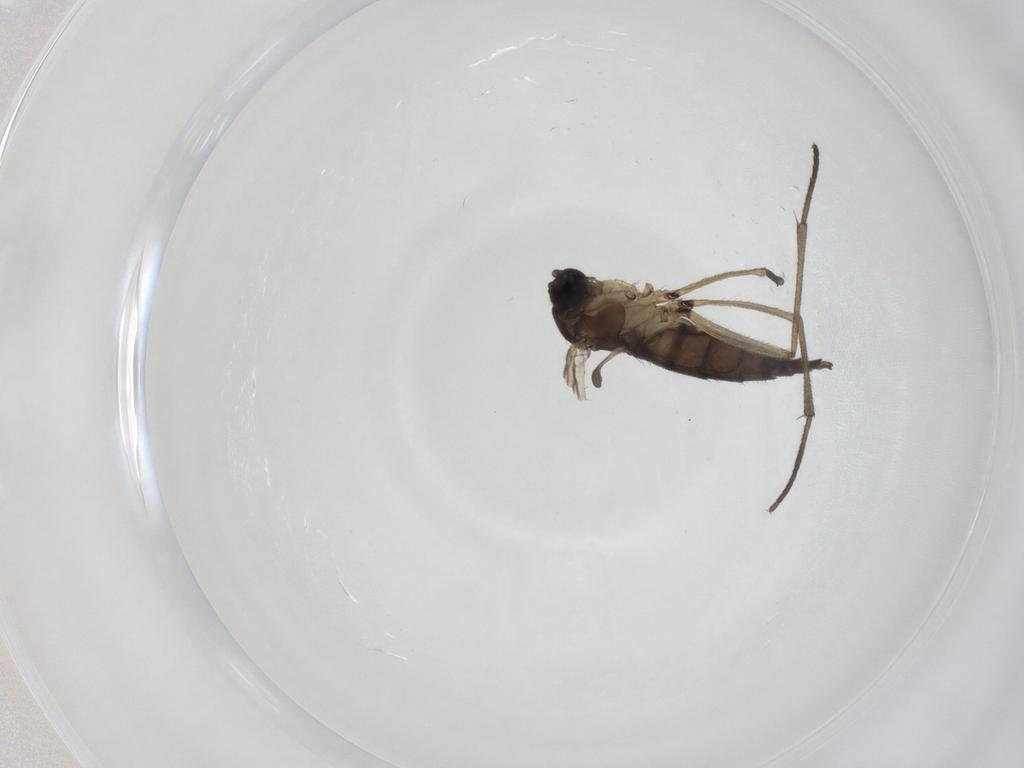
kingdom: Animalia
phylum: Arthropoda
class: Insecta
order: Diptera
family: Sciaridae
